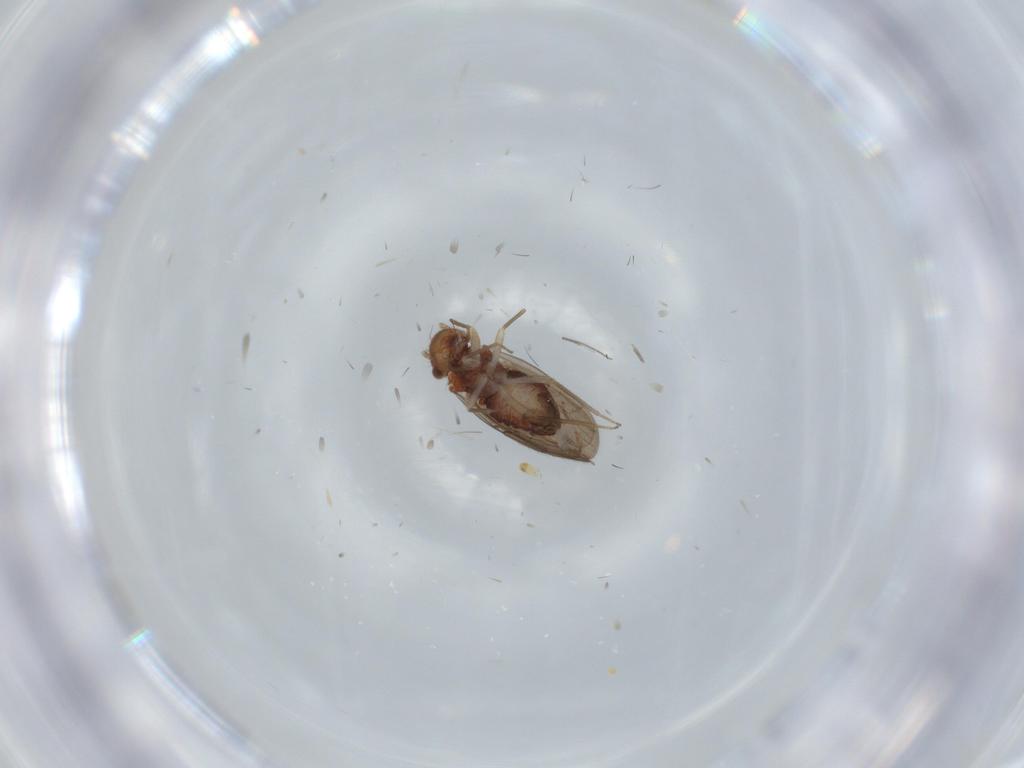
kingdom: Animalia
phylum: Arthropoda
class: Insecta
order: Psocodea
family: Ectopsocidae
